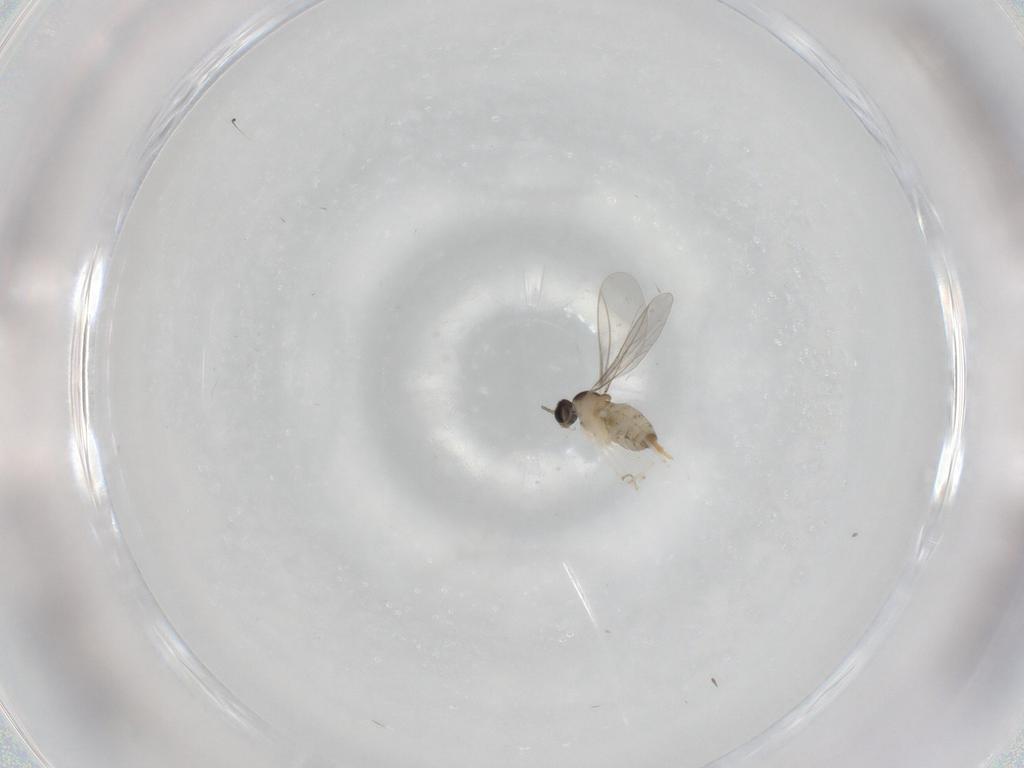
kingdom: Animalia
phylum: Arthropoda
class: Insecta
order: Diptera
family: Cecidomyiidae
